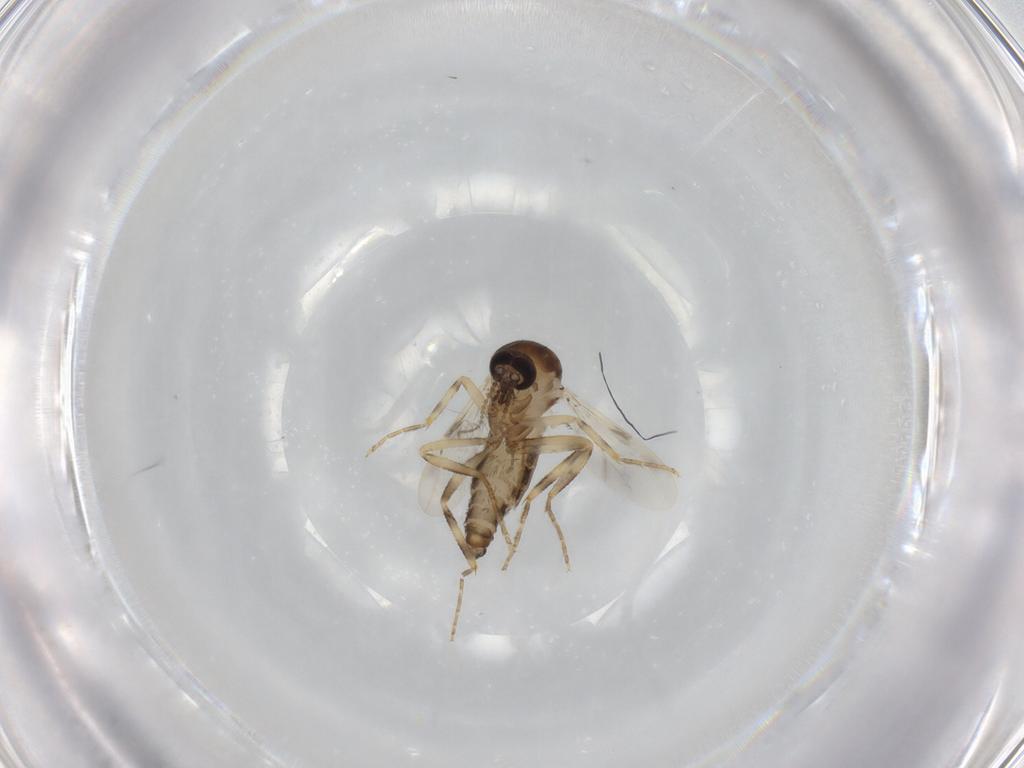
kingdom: Animalia
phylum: Arthropoda
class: Insecta
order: Diptera
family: Ceratopogonidae
